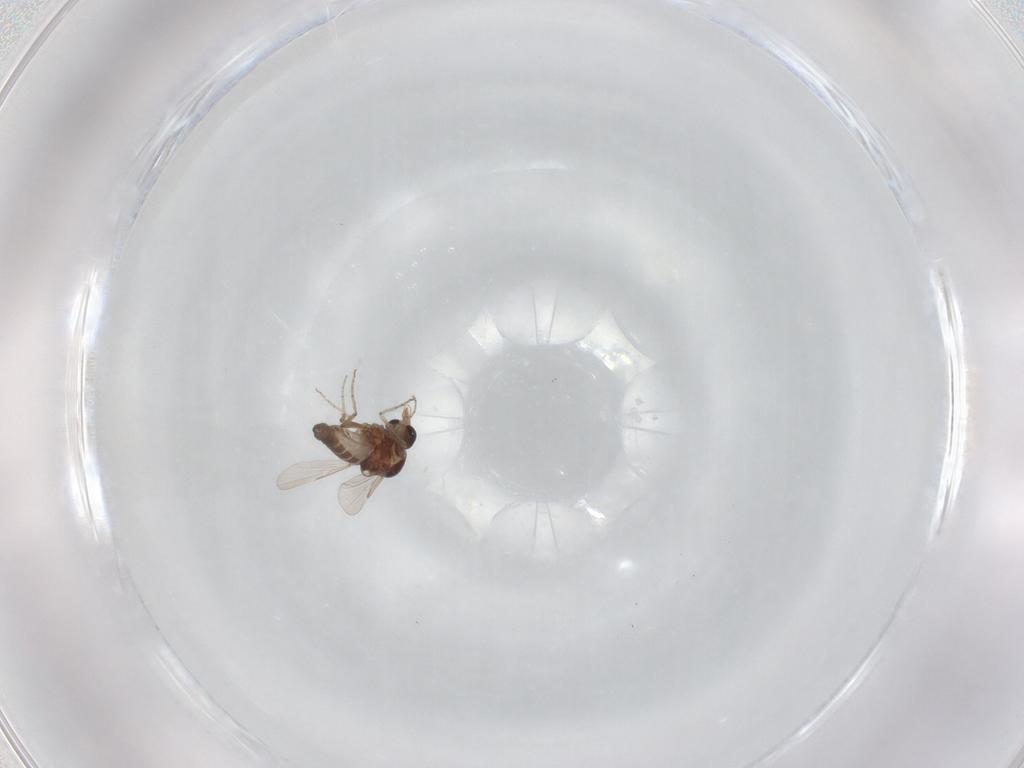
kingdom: Animalia
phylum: Arthropoda
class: Insecta
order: Diptera
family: Ceratopogonidae
